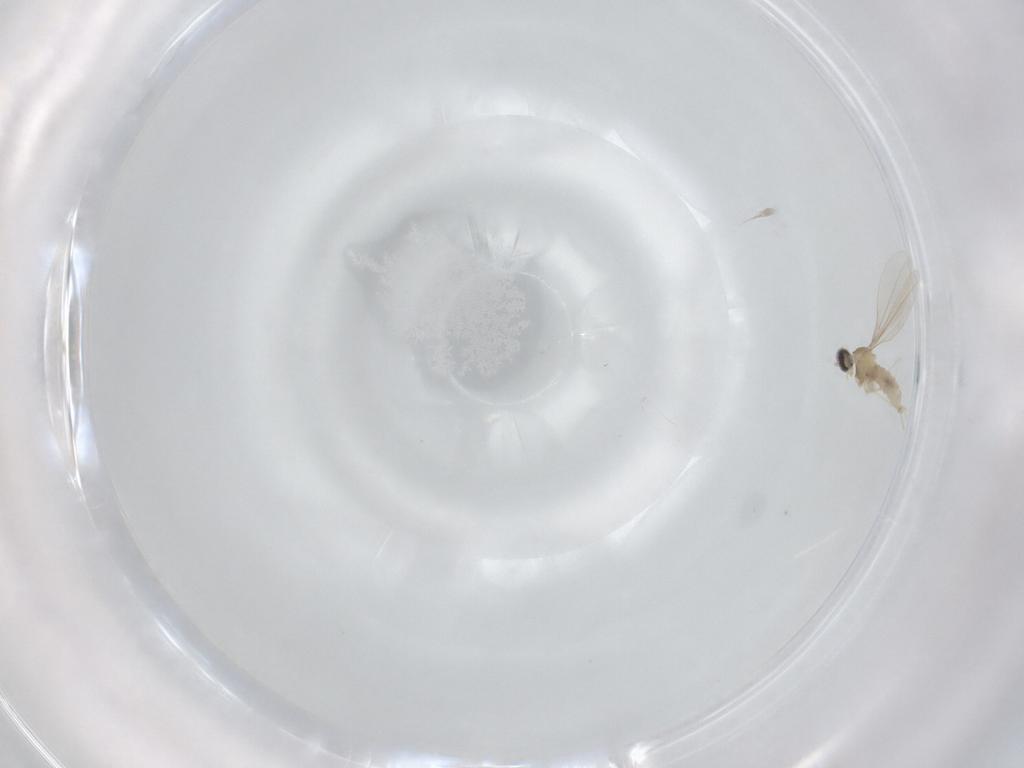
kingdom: Animalia
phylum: Arthropoda
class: Insecta
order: Diptera
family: Cecidomyiidae
